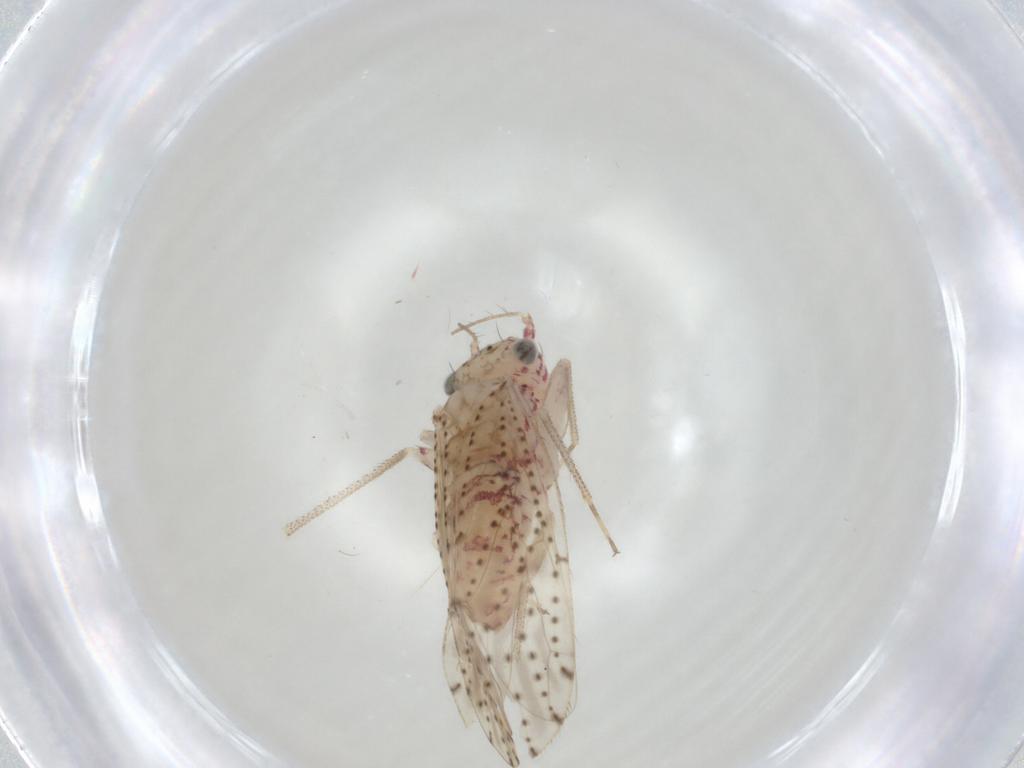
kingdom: Animalia
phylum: Arthropoda
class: Insecta
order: Psocodea
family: Philotarsidae
